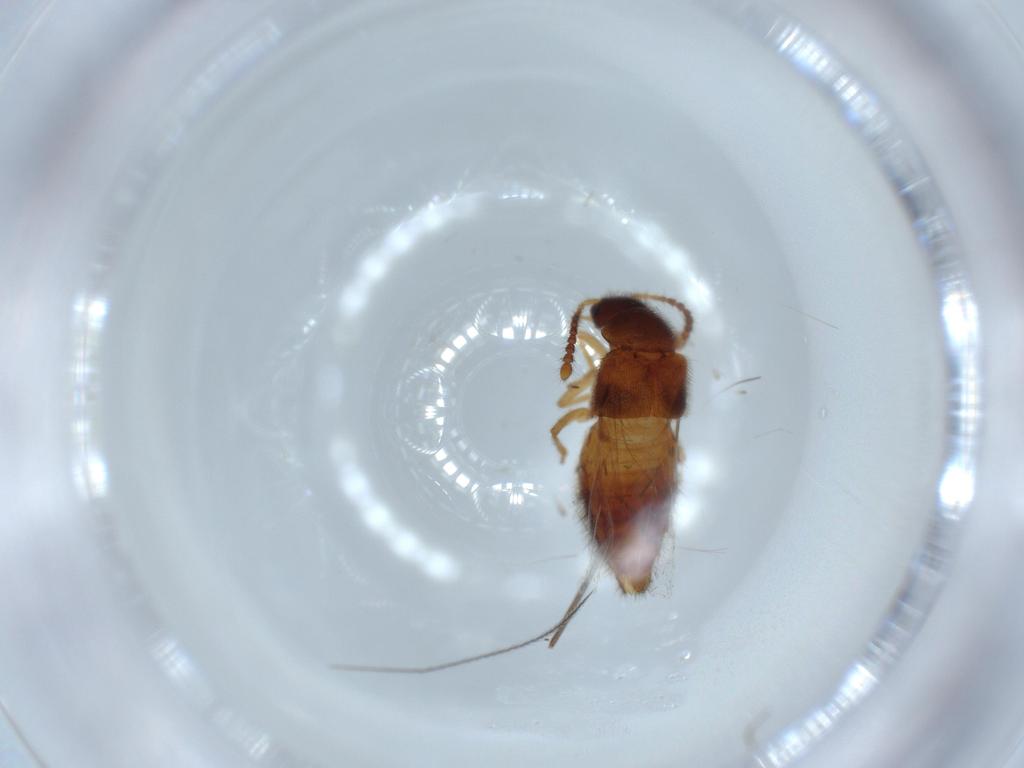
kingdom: Animalia
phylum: Arthropoda
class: Insecta
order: Coleoptera
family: Staphylinidae
